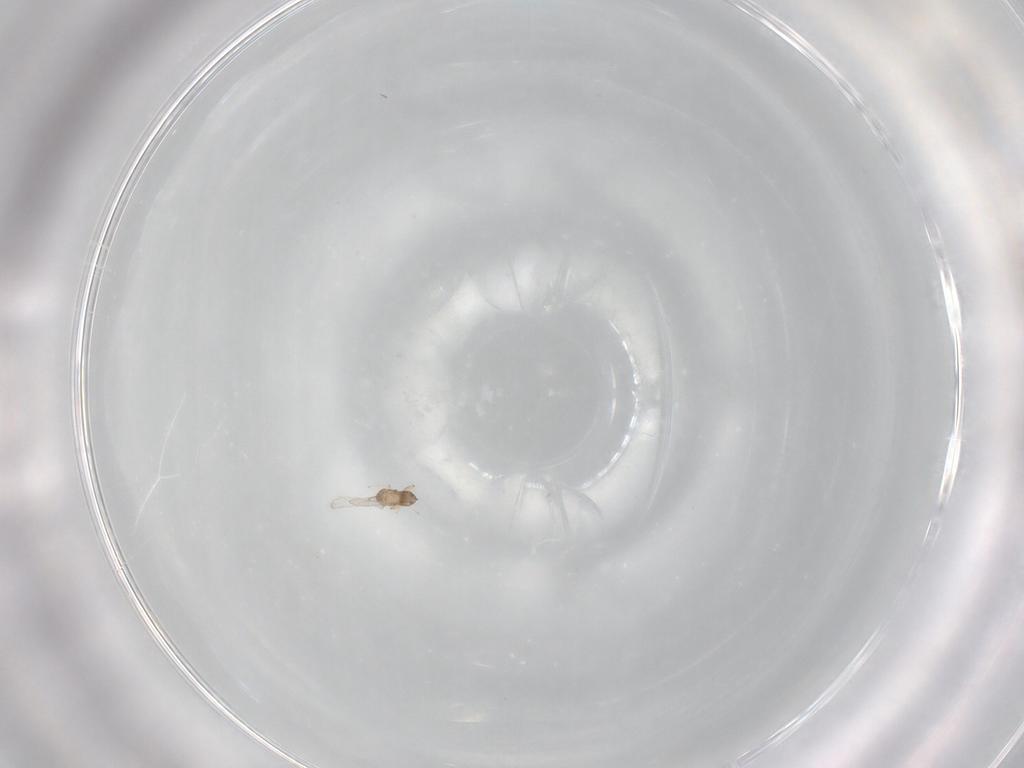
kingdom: Animalia
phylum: Arthropoda
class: Insecta
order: Hymenoptera
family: Trichogrammatidae
